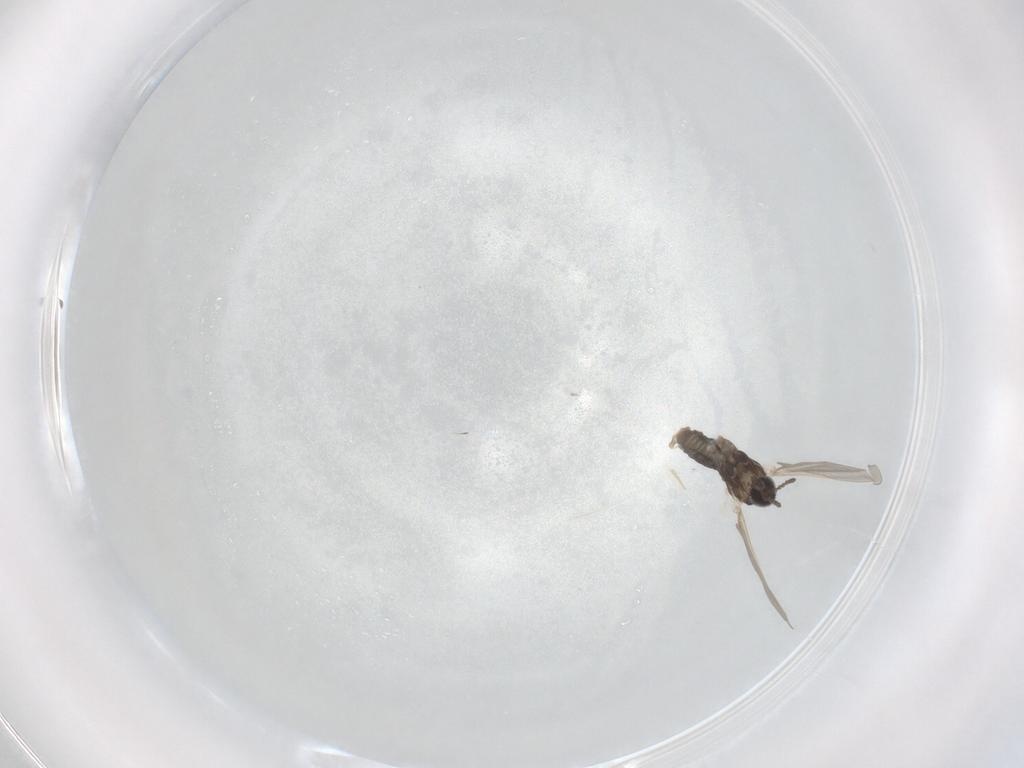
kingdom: Animalia
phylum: Arthropoda
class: Insecta
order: Diptera
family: Cecidomyiidae
